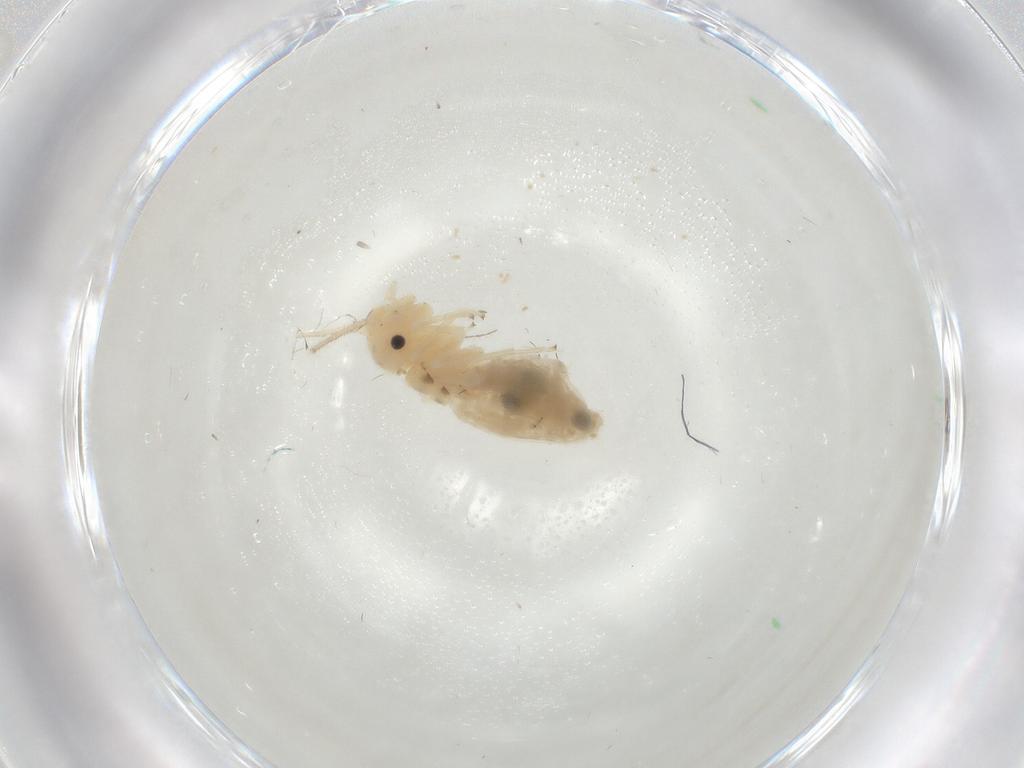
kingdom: Animalia
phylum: Arthropoda
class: Insecta
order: Psocodea
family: Caeciliusidae
